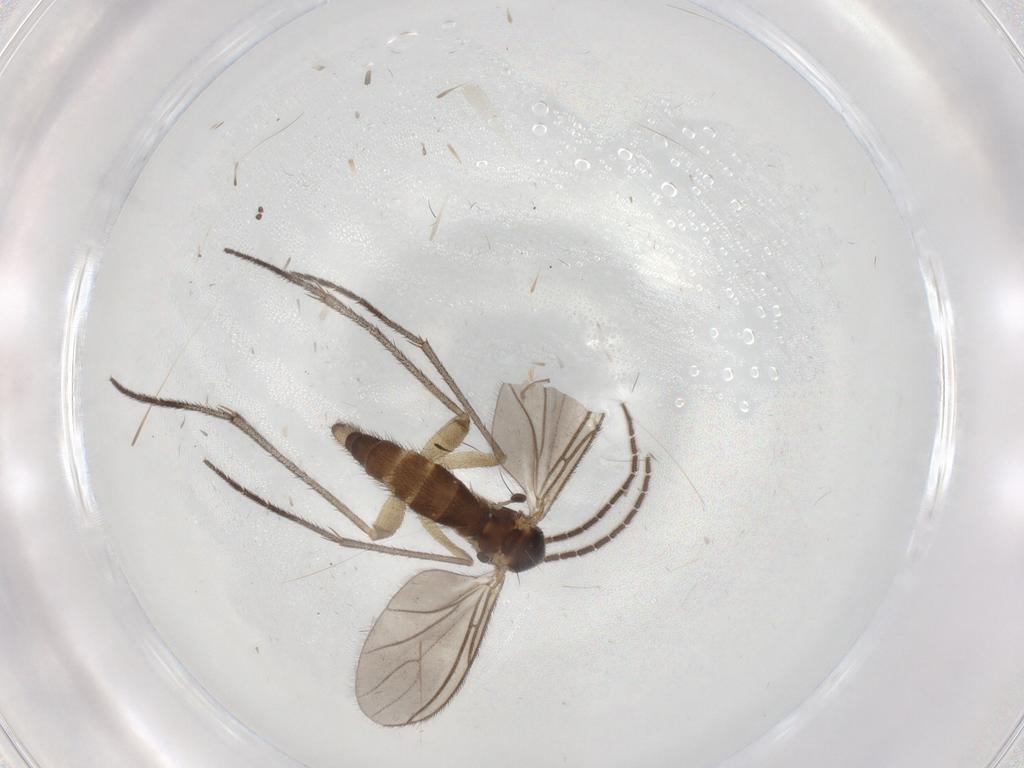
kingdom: Animalia
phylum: Arthropoda
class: Insecta
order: Diptera
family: Sciaridae
